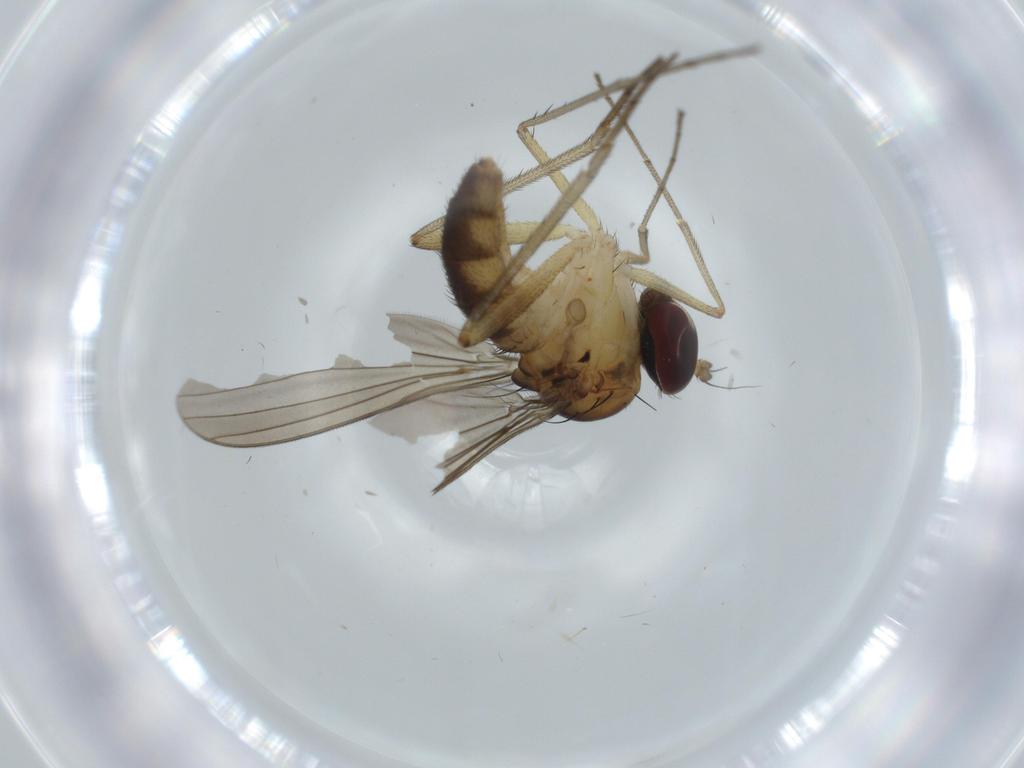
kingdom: Animalia
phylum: Arthropoda
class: Insecta
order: Diptera
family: Dolichopodidae
